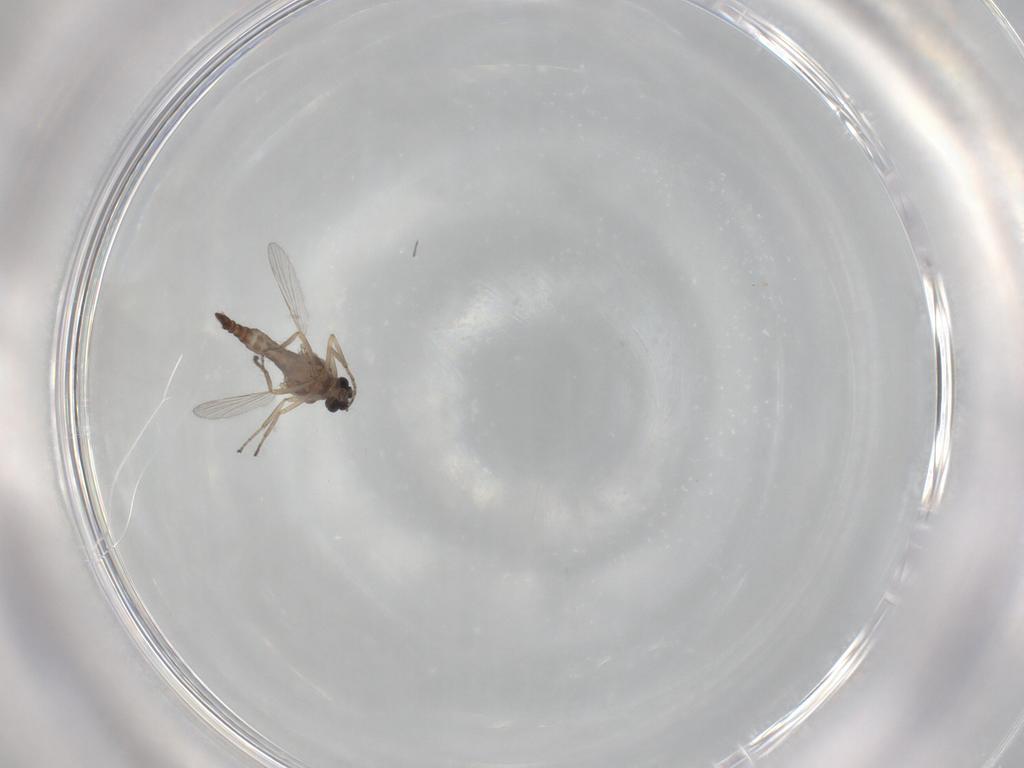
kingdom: Animalia
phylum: Arthropoda
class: Insecta
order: Diptera
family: Ceratopogonidae
